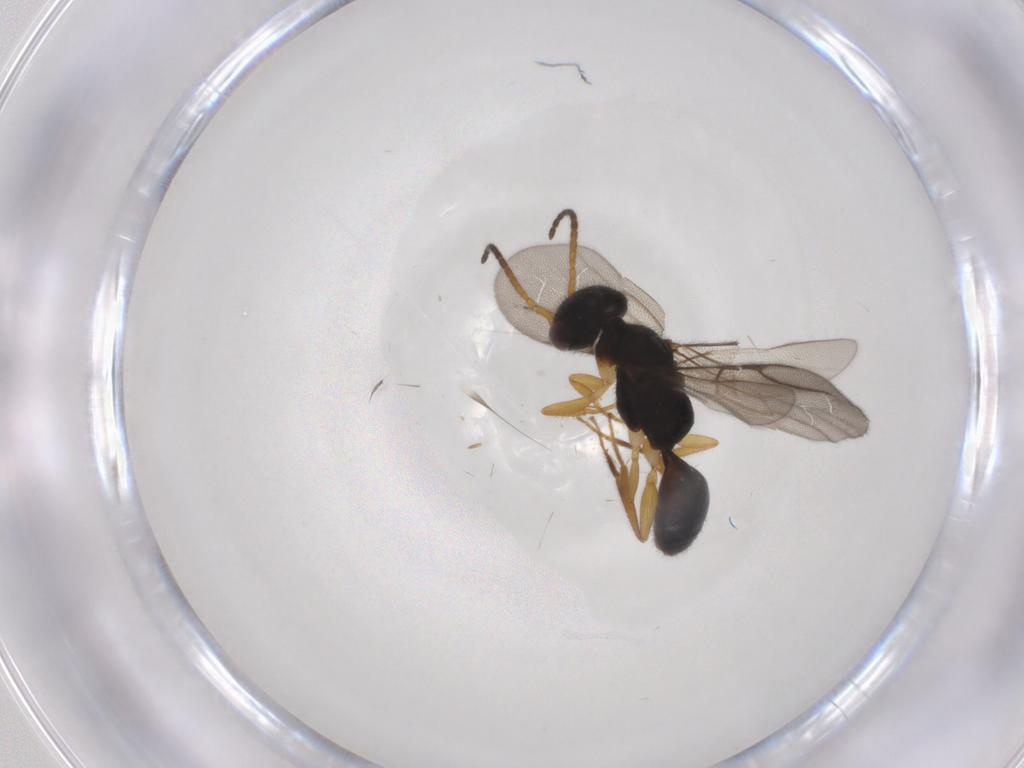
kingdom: Animalia
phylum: Arthropoda
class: Insecta
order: Hymenoptera
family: Bethylidae
